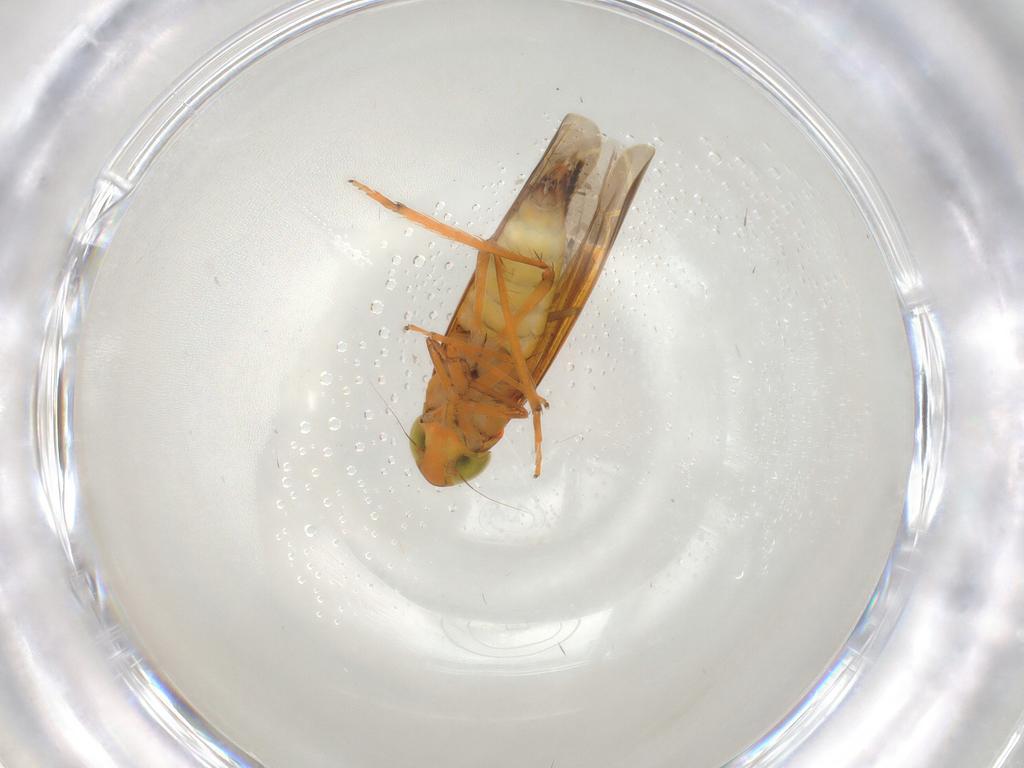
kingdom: Animalia
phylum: Arthropoda
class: Insecta
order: Hemiptera
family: Cicadellidae
